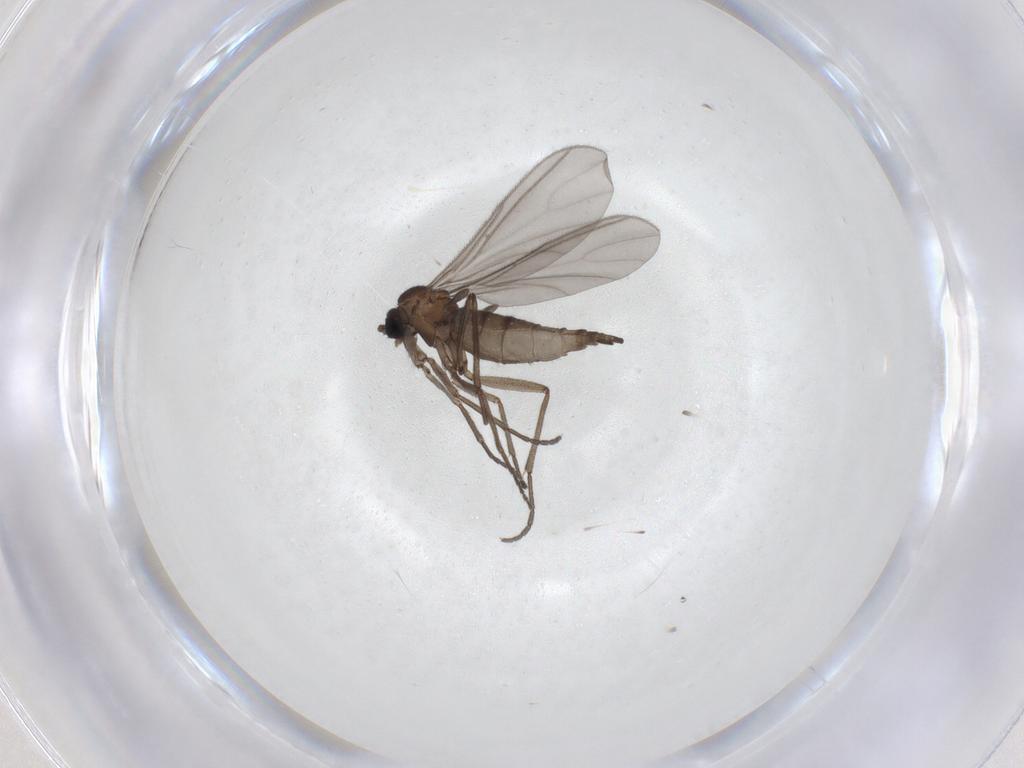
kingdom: Animalia
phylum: Arthropoda
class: Insecta
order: Diptera
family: Sciaridae
